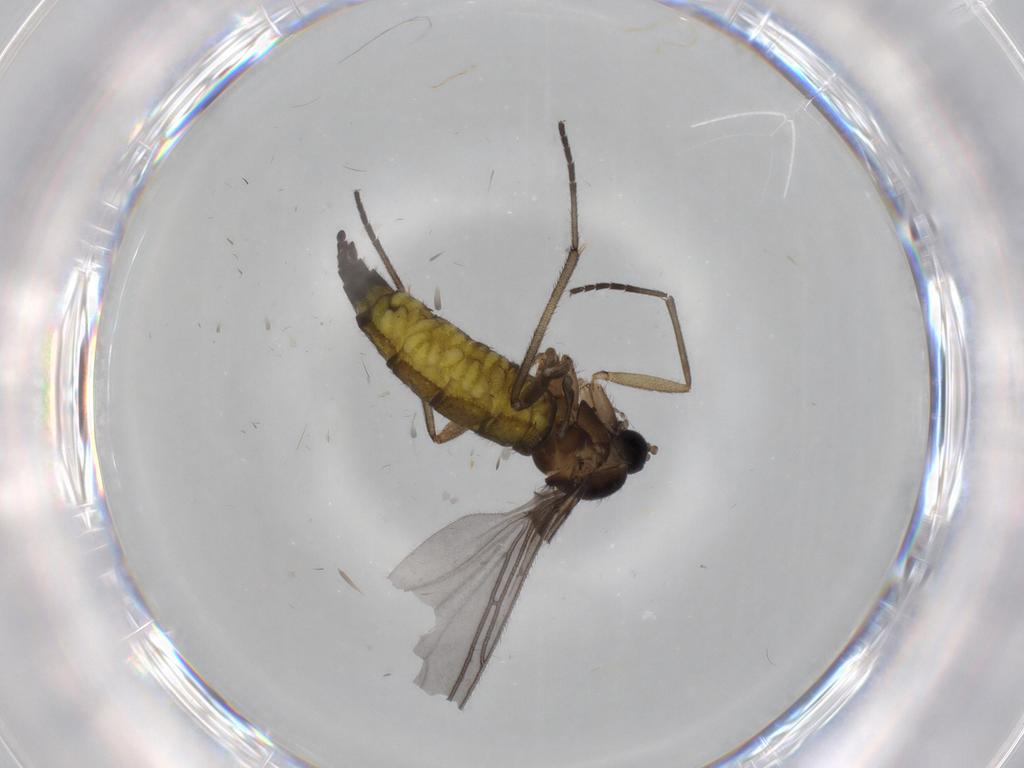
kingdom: Animalia
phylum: Arthropoda
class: Insecta
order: Diptera
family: Sciaridae
